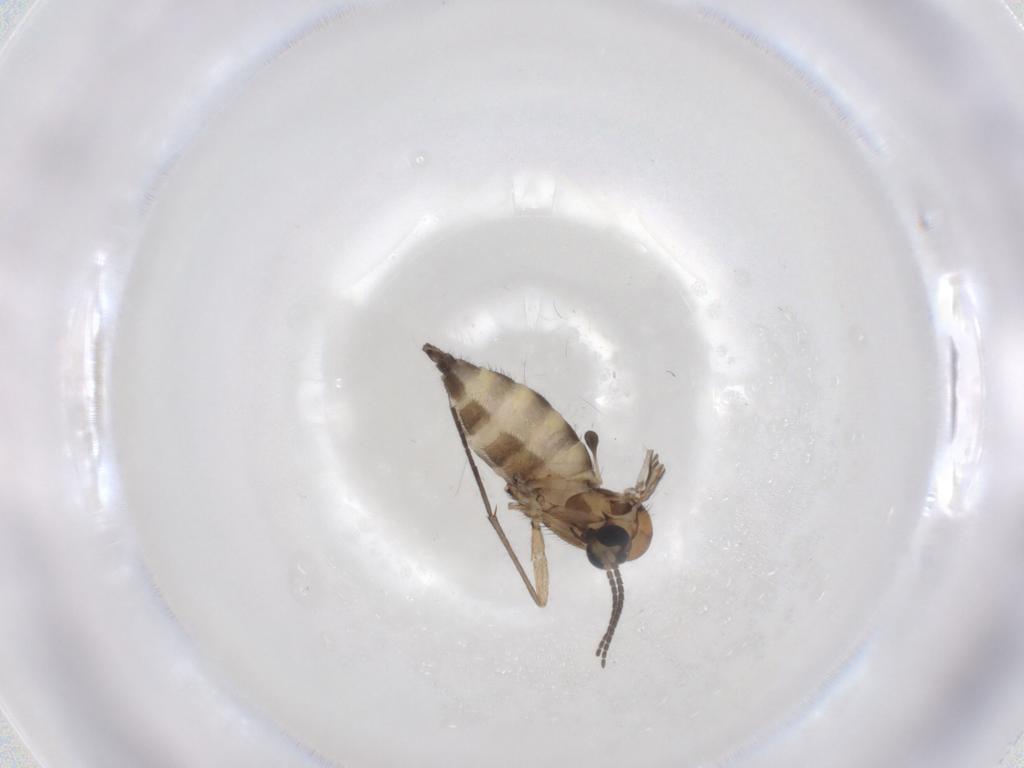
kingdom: Animalia
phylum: Arthropoda
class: Insecta
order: Diptera
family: Sciaridae
